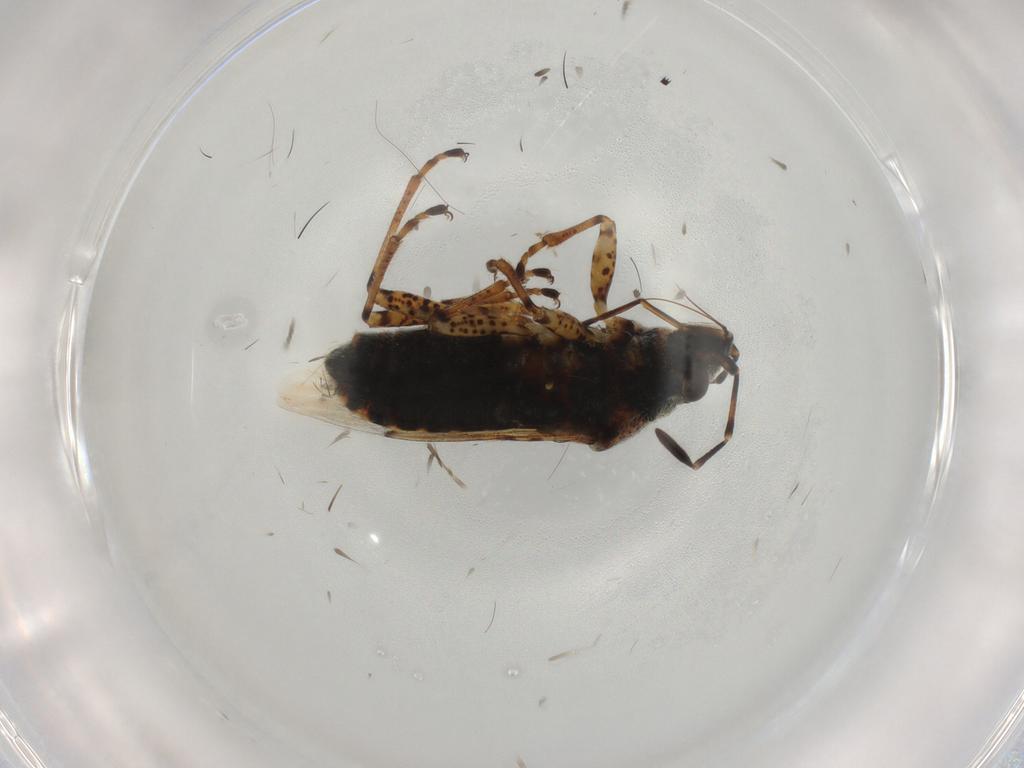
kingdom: Animalia
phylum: Arthropoda
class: Insecta
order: Hemiptera
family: Lygaeidae
